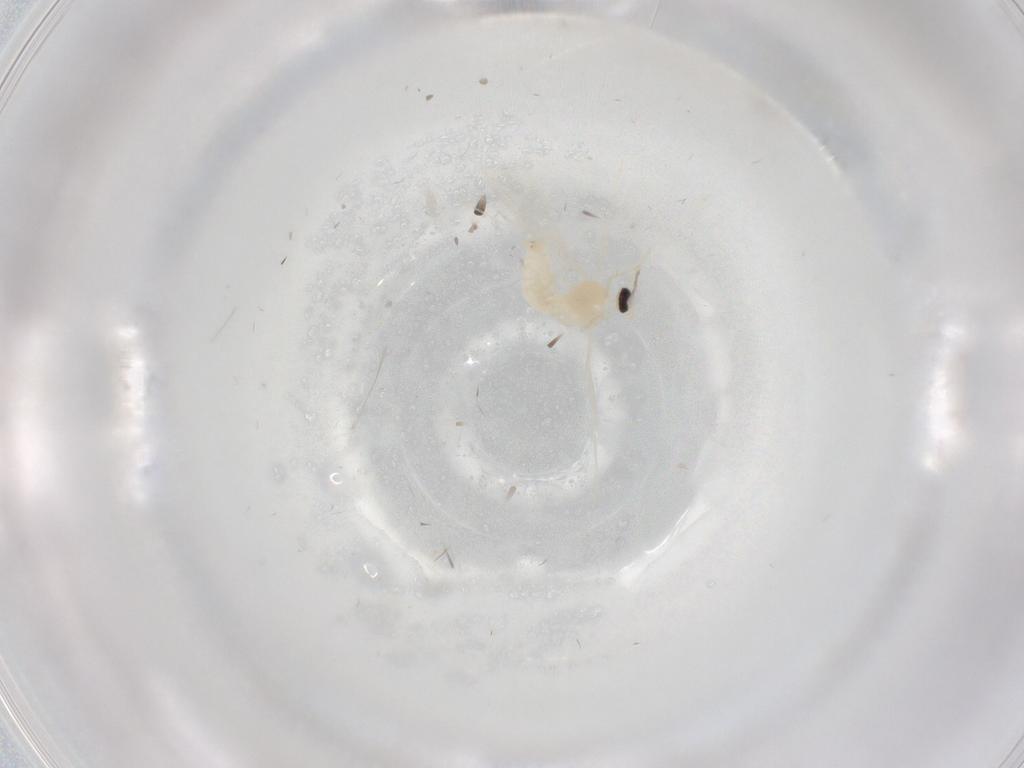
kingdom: Animalia
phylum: Arthropoda
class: Insecta
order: Diptera
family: Cecidomyiidae
